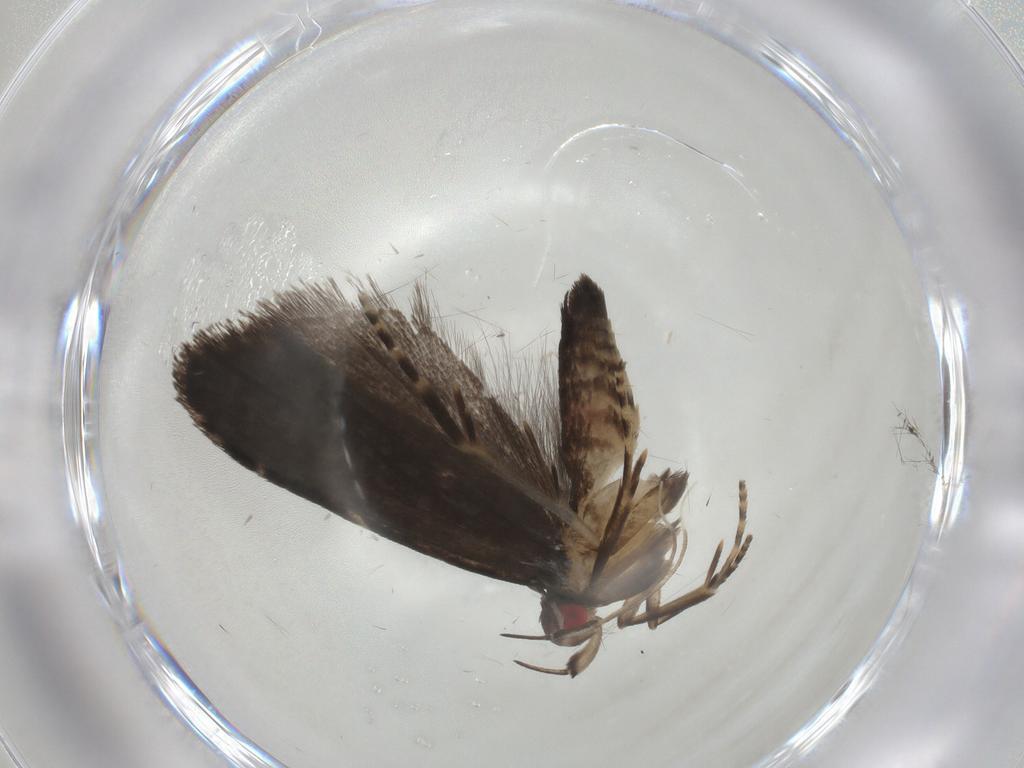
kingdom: Animalia
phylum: Arthropoda
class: Insecta
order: Lepidoptera
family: Gelechiidae
